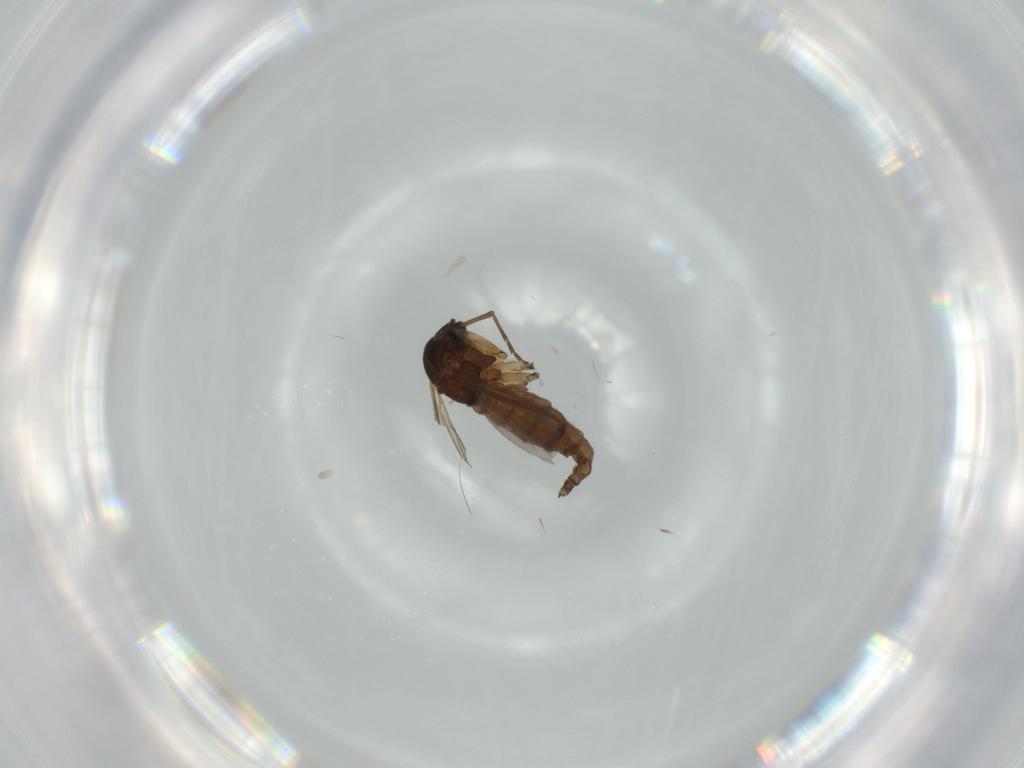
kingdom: Animalia
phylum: Arthropoda
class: Insecta
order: Diptera
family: Sciaridae
